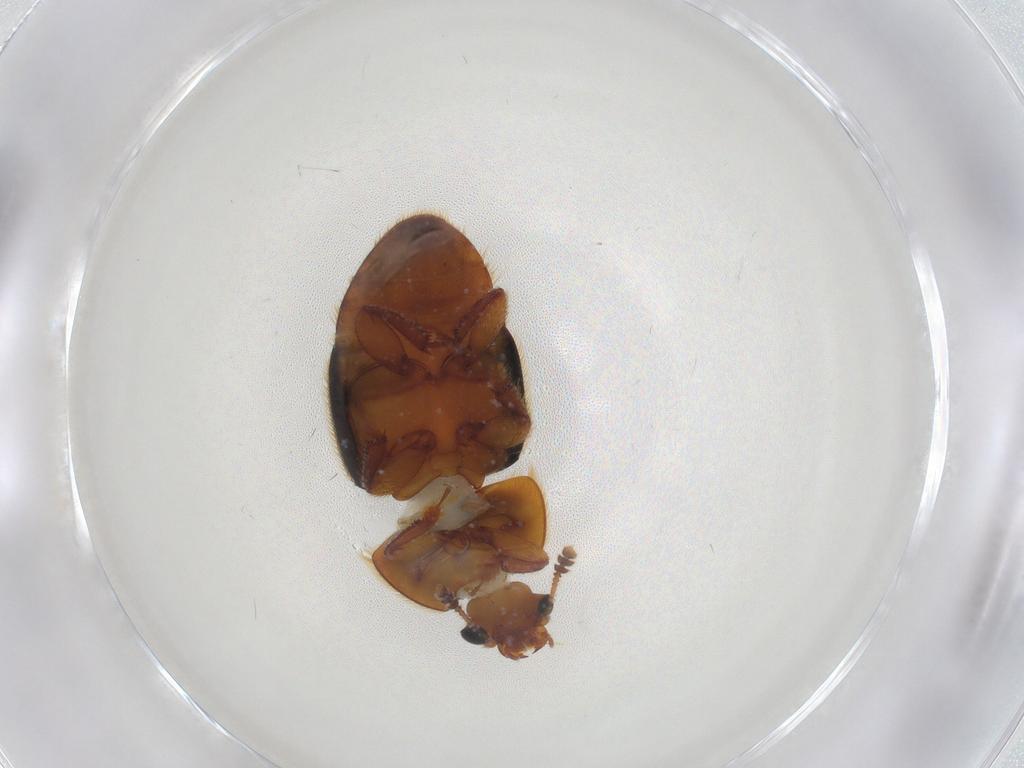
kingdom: Animalia
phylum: Arthropoda
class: Insecta
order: Coleoptera
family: Nitidulidae
